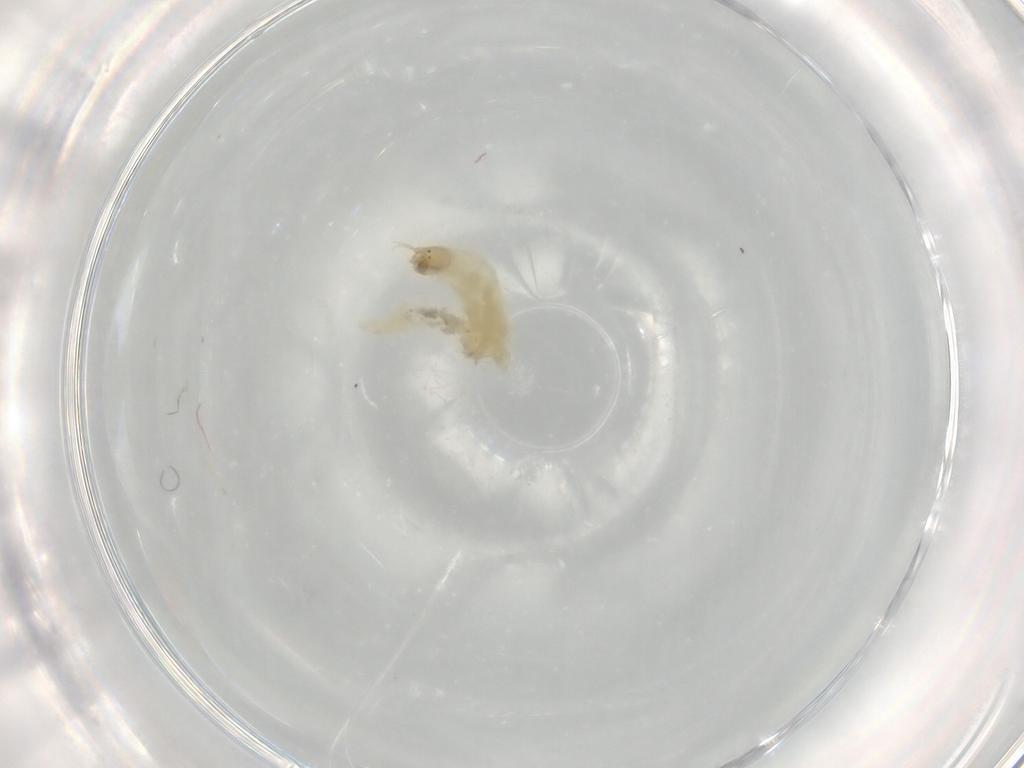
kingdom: Animalia
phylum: Arthropoda
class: Insecta
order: Diptera
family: Chironomidae
